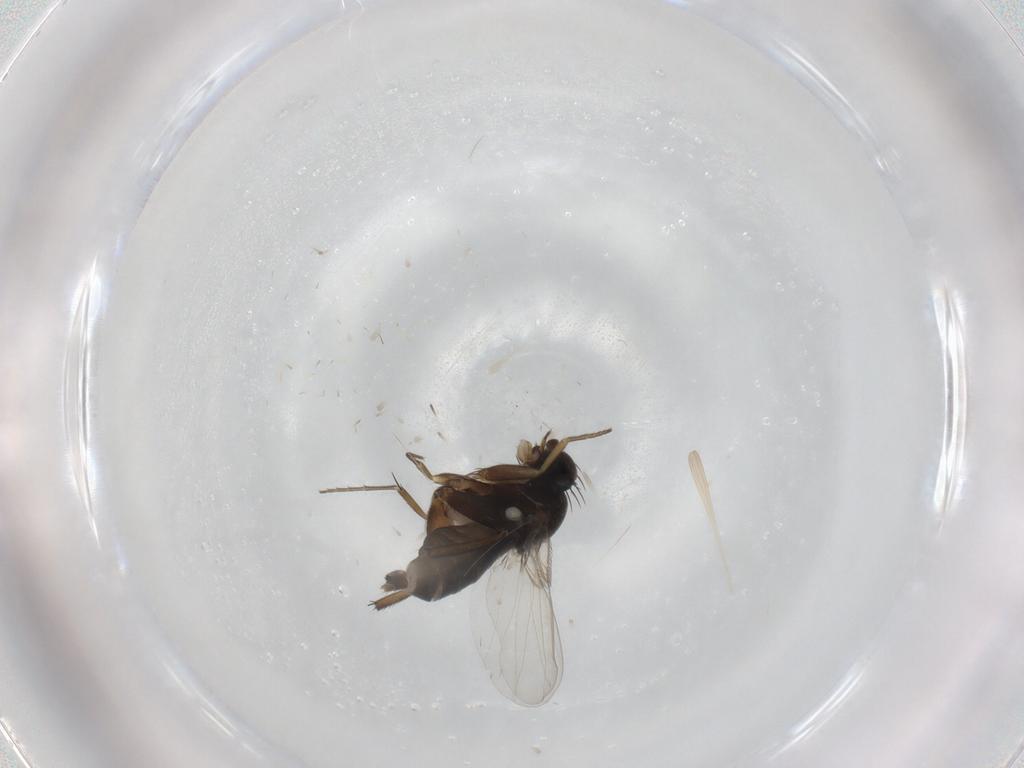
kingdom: Animalia
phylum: Arthropoda
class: Insecta
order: Diptera
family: Phoridae
